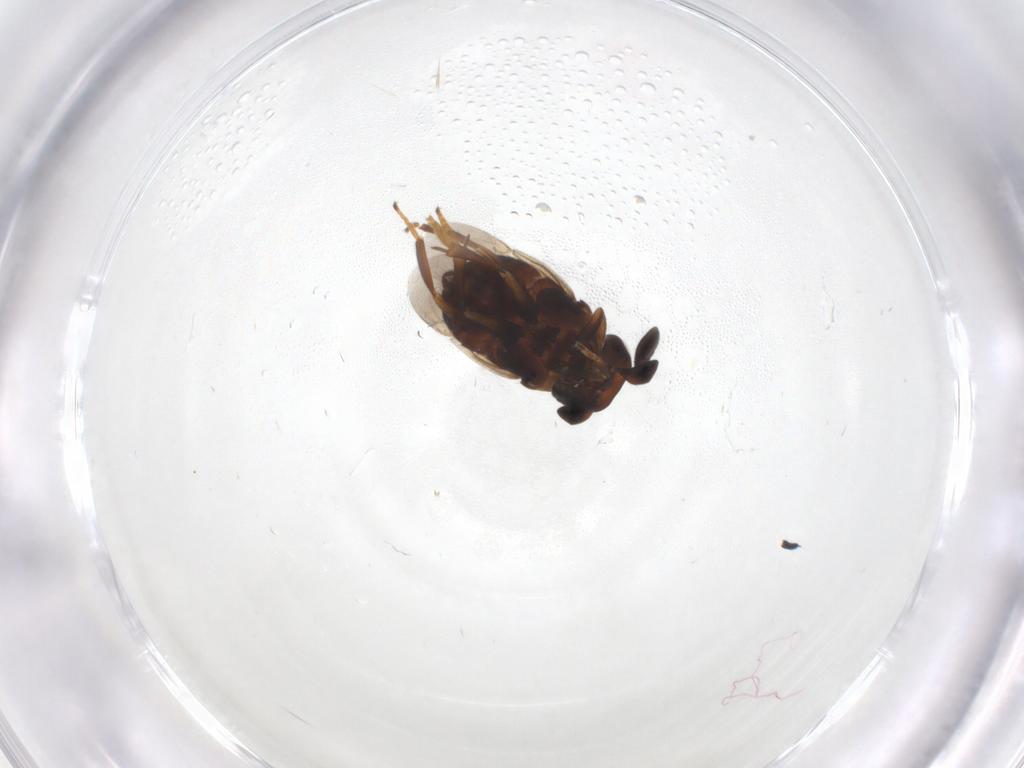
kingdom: Animalia
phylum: Arthropoda
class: Insecta
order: Hymenoptera
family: Encyrtidae
